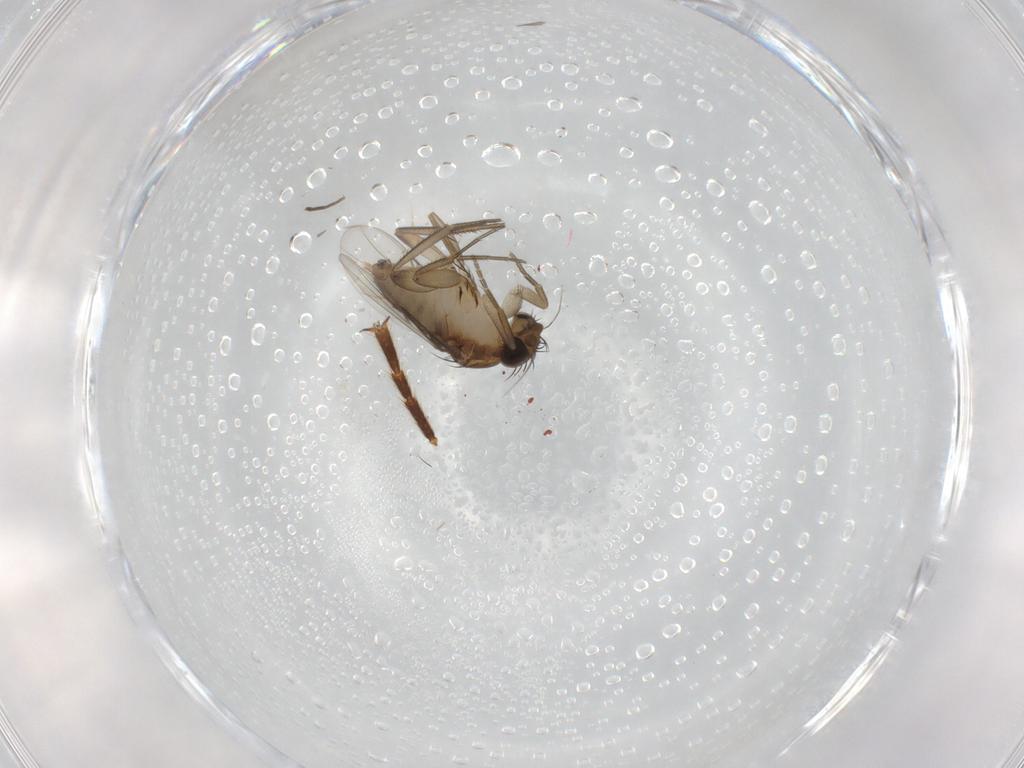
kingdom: Animalia
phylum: Arthropoda
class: Insecta
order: Diptera
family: Phoridae
